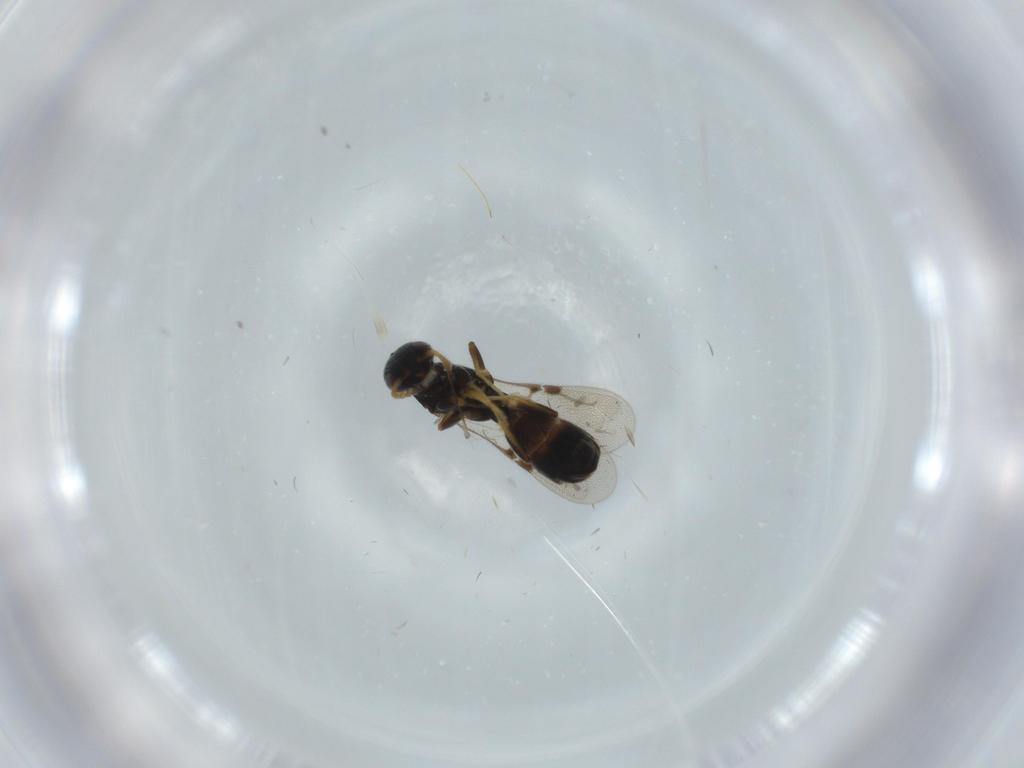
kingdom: Animalia
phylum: Arthropoda
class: Insecta
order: Hymenoptera
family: Bethylidae
